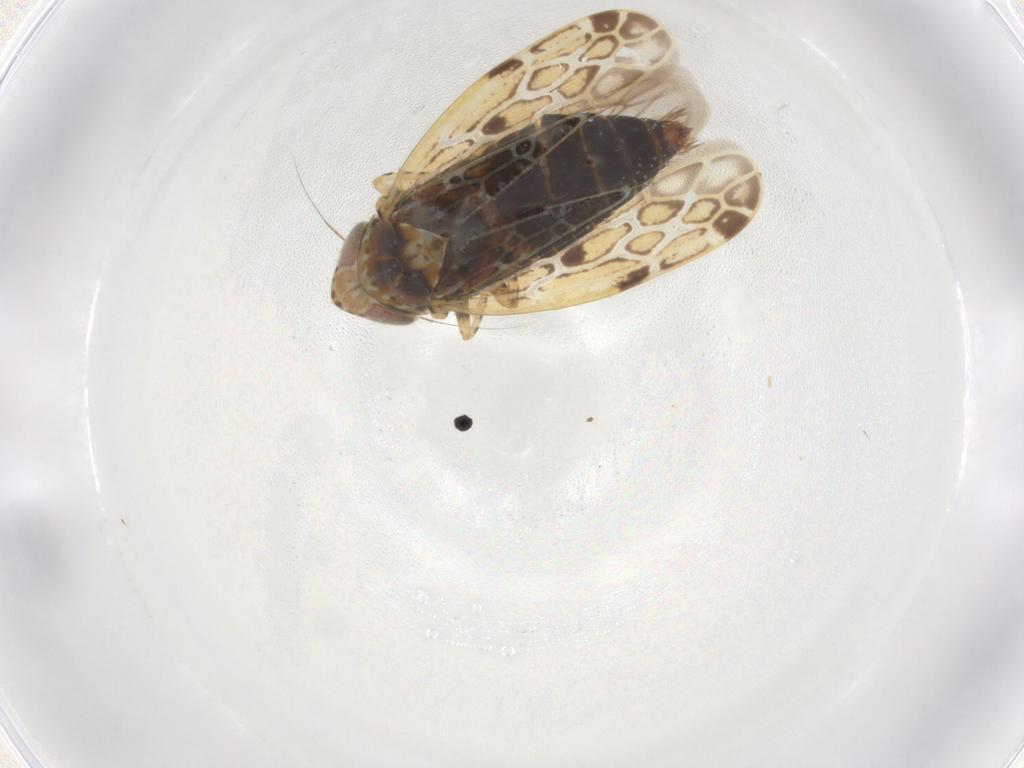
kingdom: Animalia
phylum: Arthropoda
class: Insecta
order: Hemiptera
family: Cicadellidae
